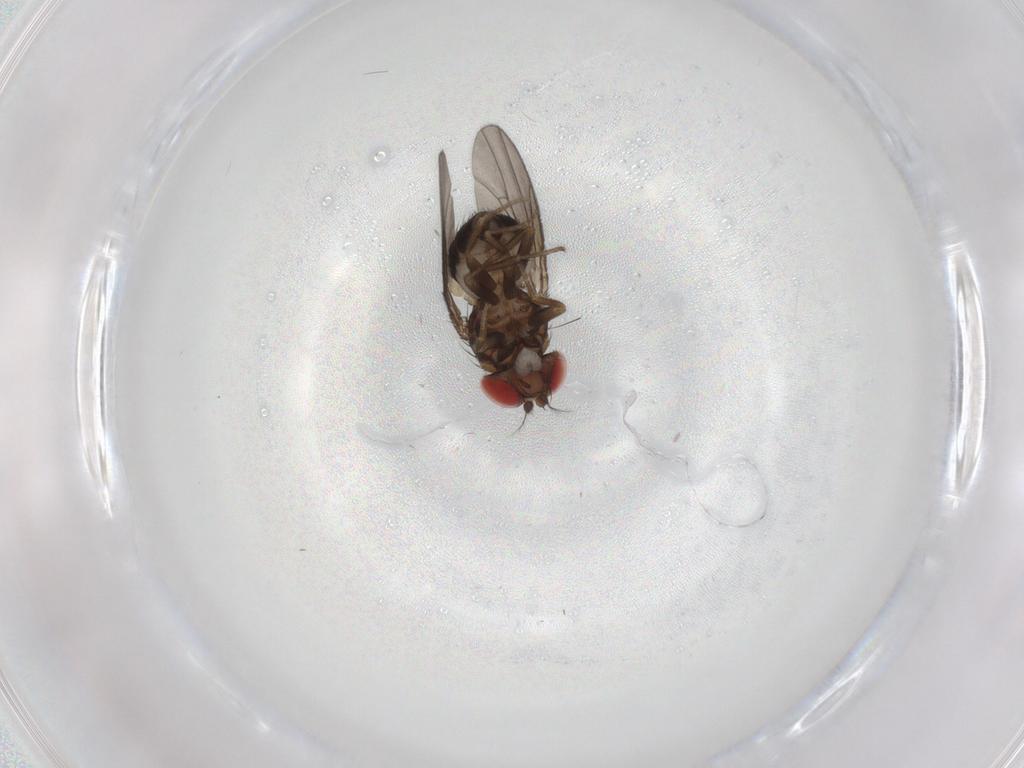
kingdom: Animalia
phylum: Arthropoda
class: Insecta
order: Diptera
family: Drosophilidae
